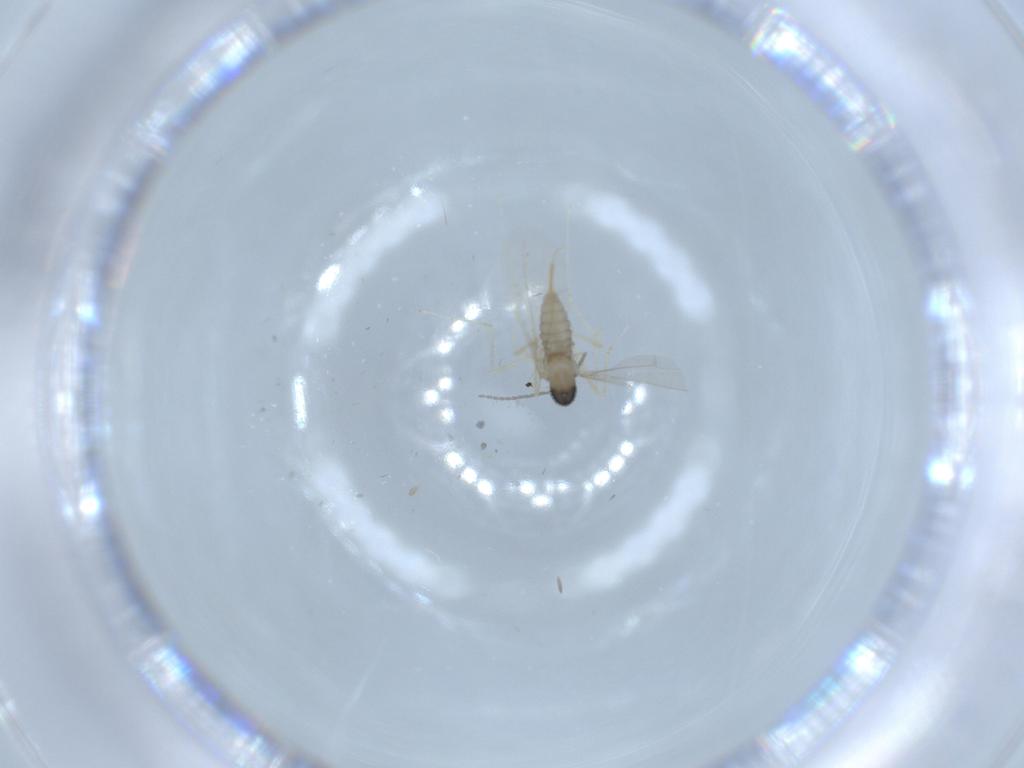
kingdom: Animalia
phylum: Arthropoda
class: Insecta
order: Diptera
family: Cecidomyiidae
